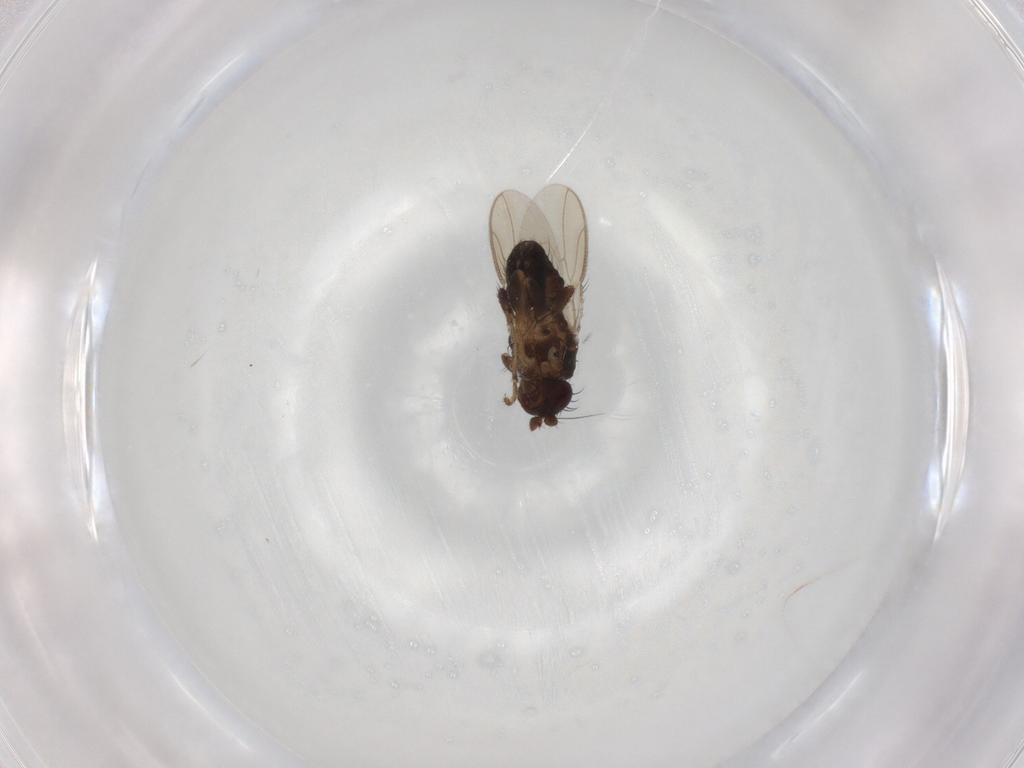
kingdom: Animalia
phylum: Arthropoda
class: Insecta
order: Diptera
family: Sphaeroceridae
